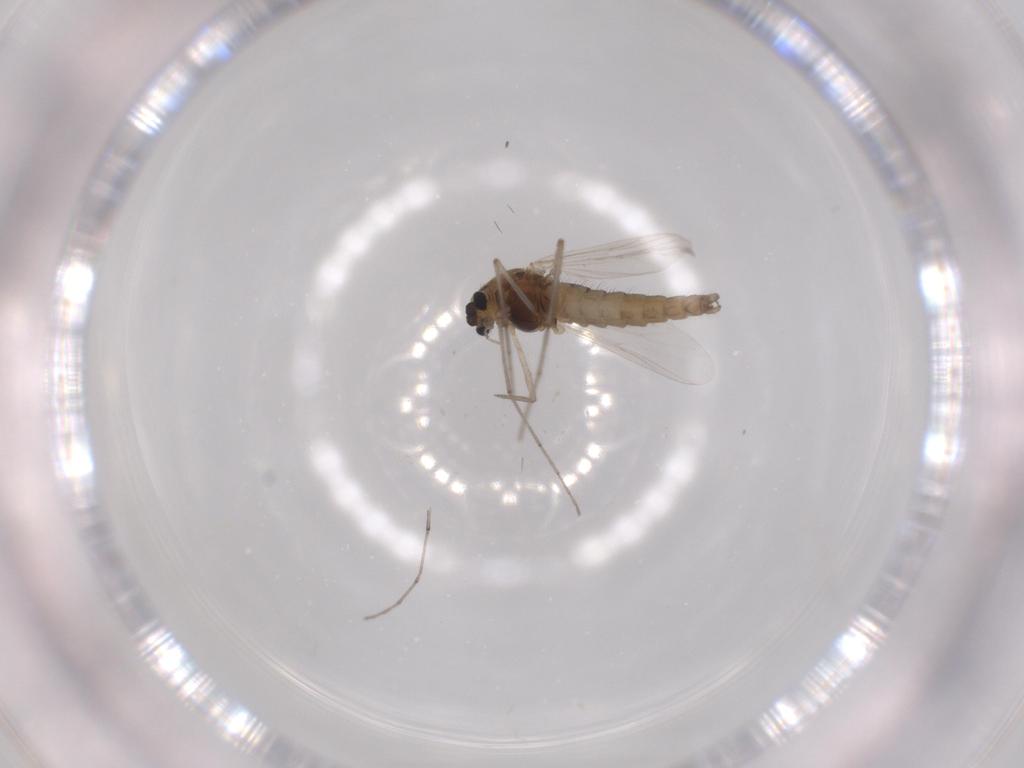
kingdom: Animalia
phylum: Arthropoda
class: Insecta
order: Diptera
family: Chironomidae
